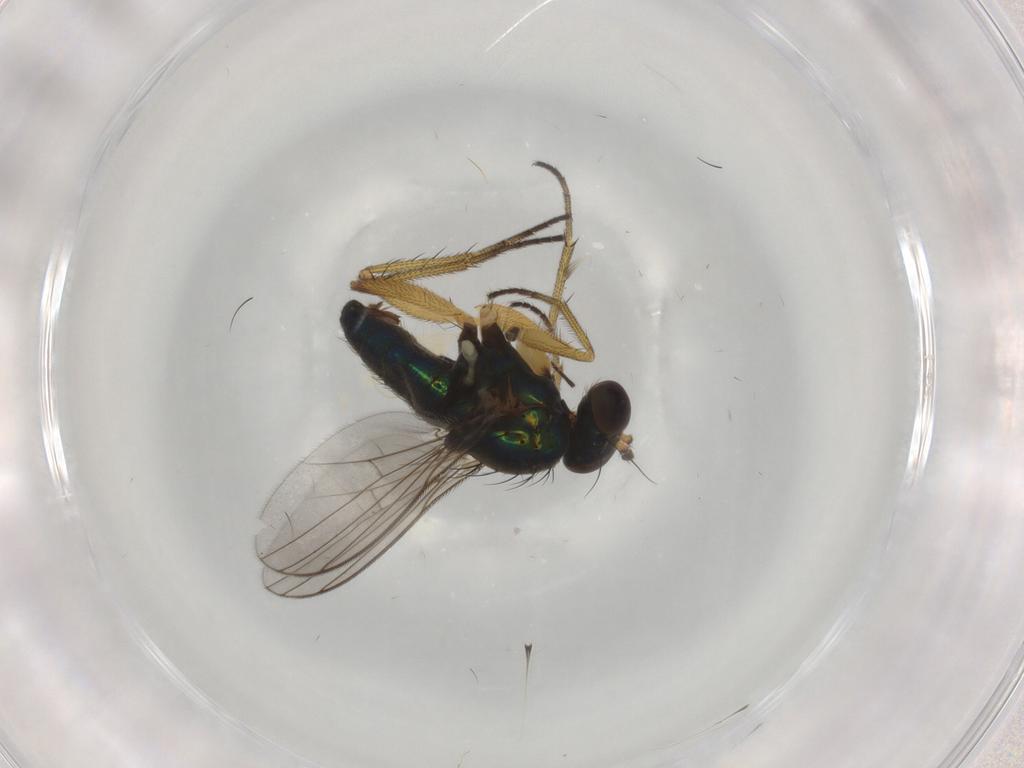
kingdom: Animalia
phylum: Arthropoda
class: Insecta
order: Diptera
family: Dolichopodidae
